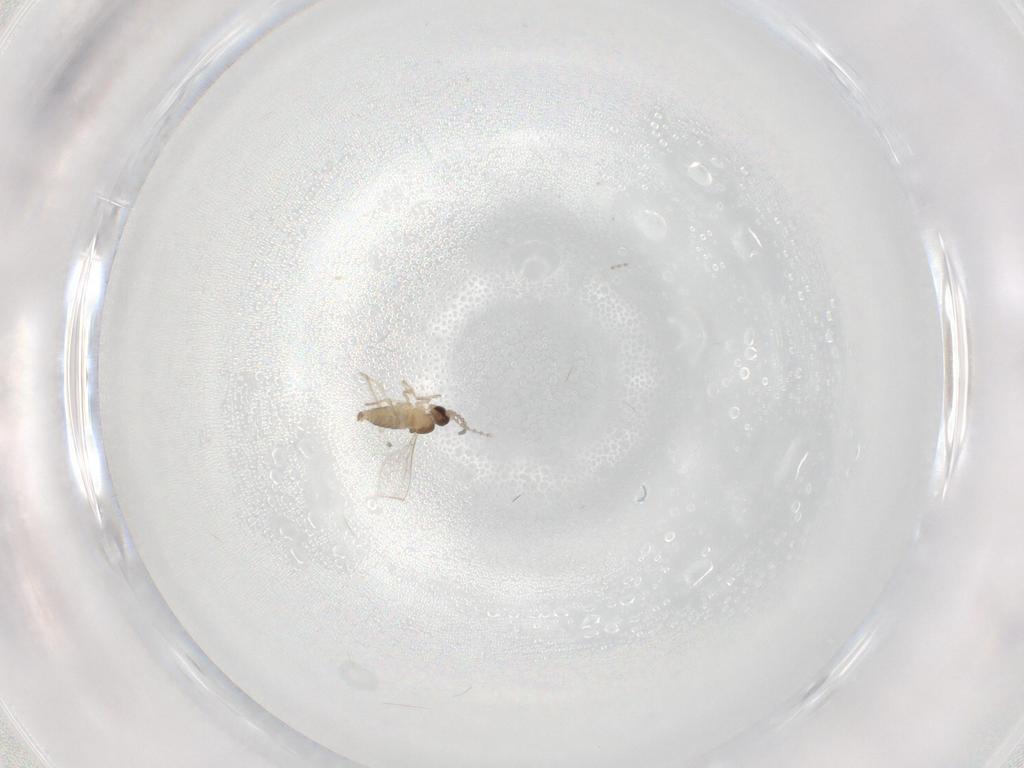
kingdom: Animalia
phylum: Arthropoda
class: Insecta
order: Diptera
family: Cecidomyiidae
